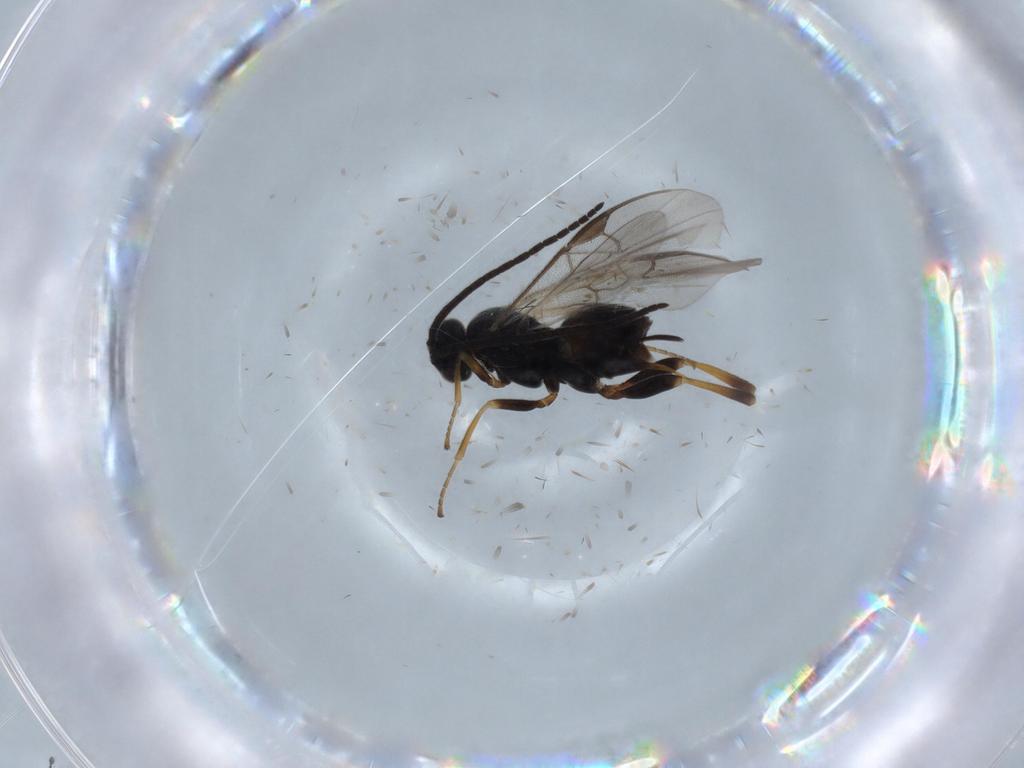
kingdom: Animalia
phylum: Arthropoda
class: Insecta
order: Hymenoptera
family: Braconidae
